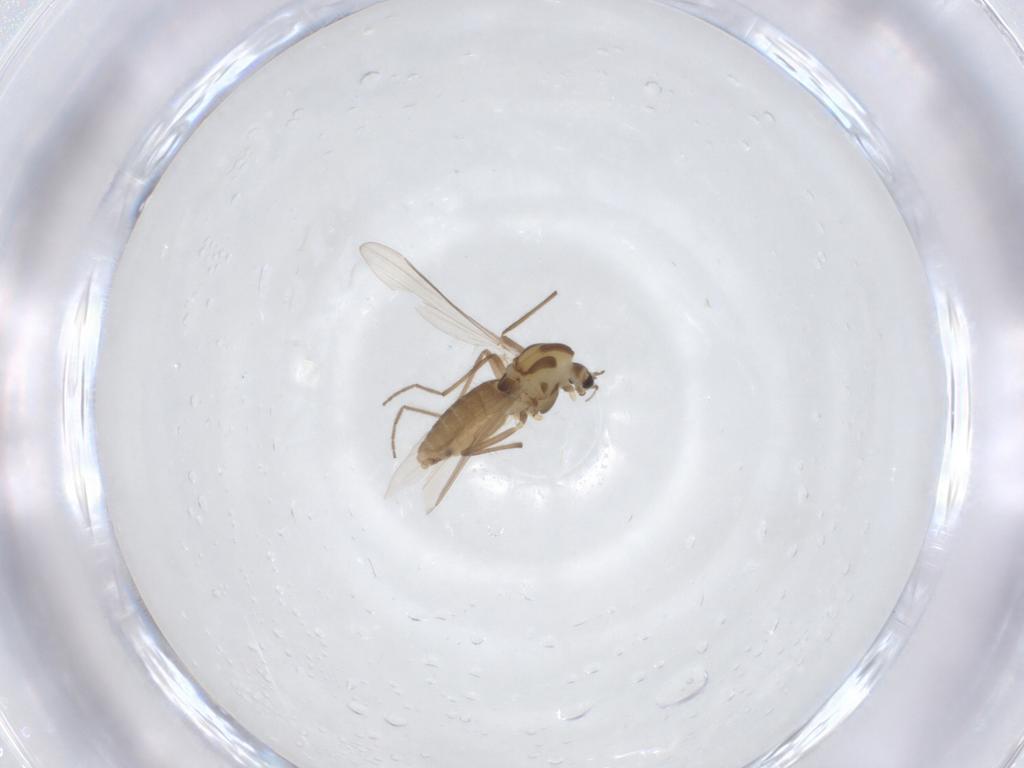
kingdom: Animalia
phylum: Arthropoda
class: Insecta
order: Diptera
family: Chironomidae
